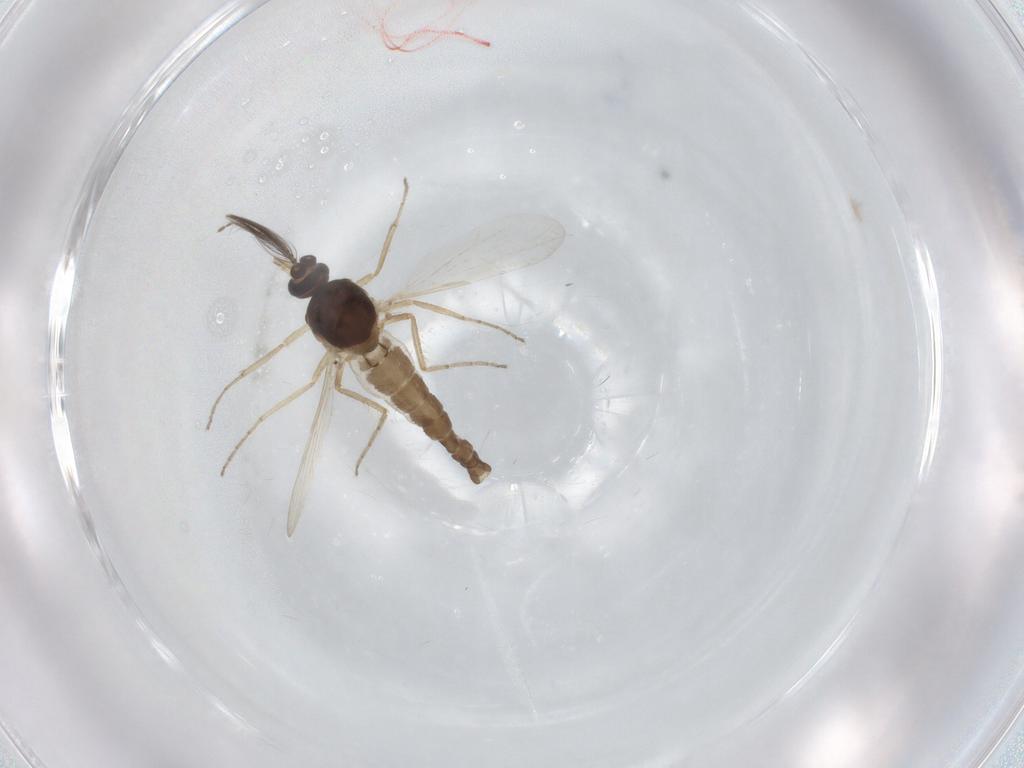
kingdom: Animalia
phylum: Arthropoda
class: Insecta
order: Diptera
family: Ceratopogonidae
